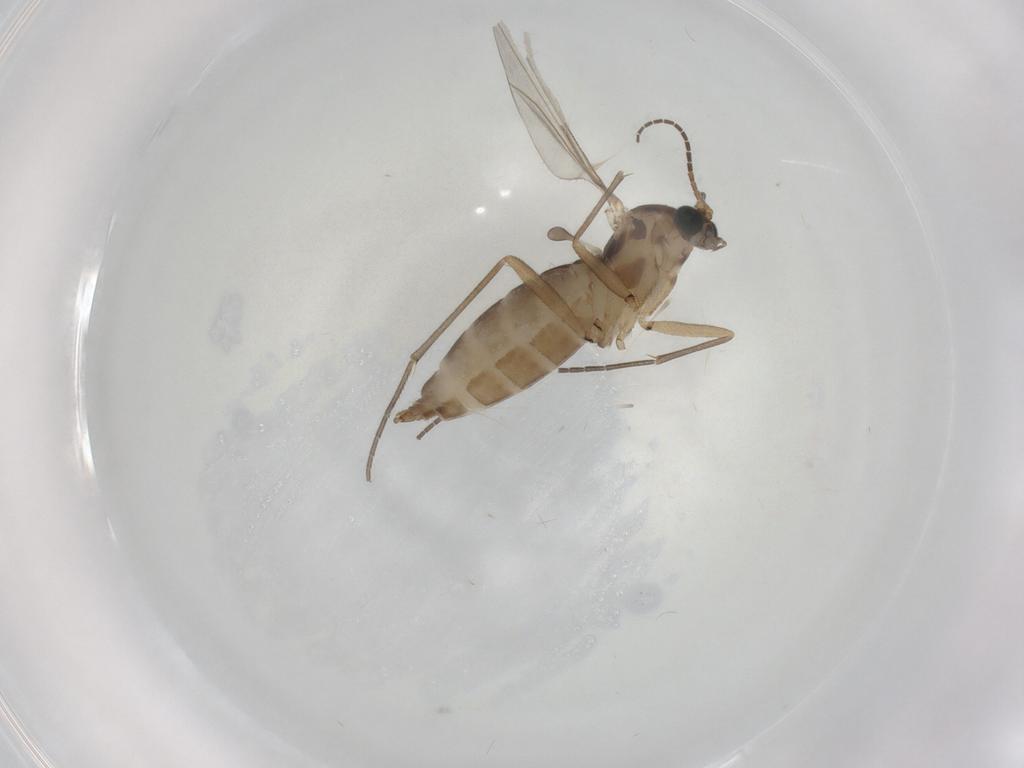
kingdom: Animalia
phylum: Arthropoda
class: Insecta
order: Diptera
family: Sciaridae
